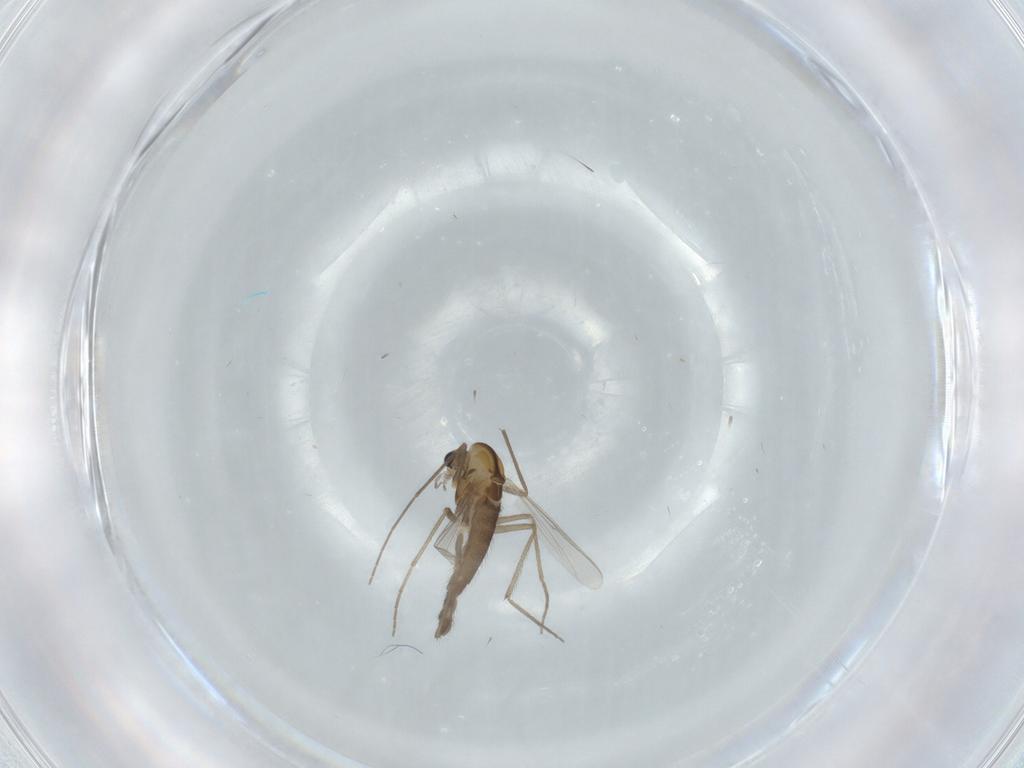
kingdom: Animalia
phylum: Arthropoda
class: Insecta
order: Diptera
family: Chironomidae
